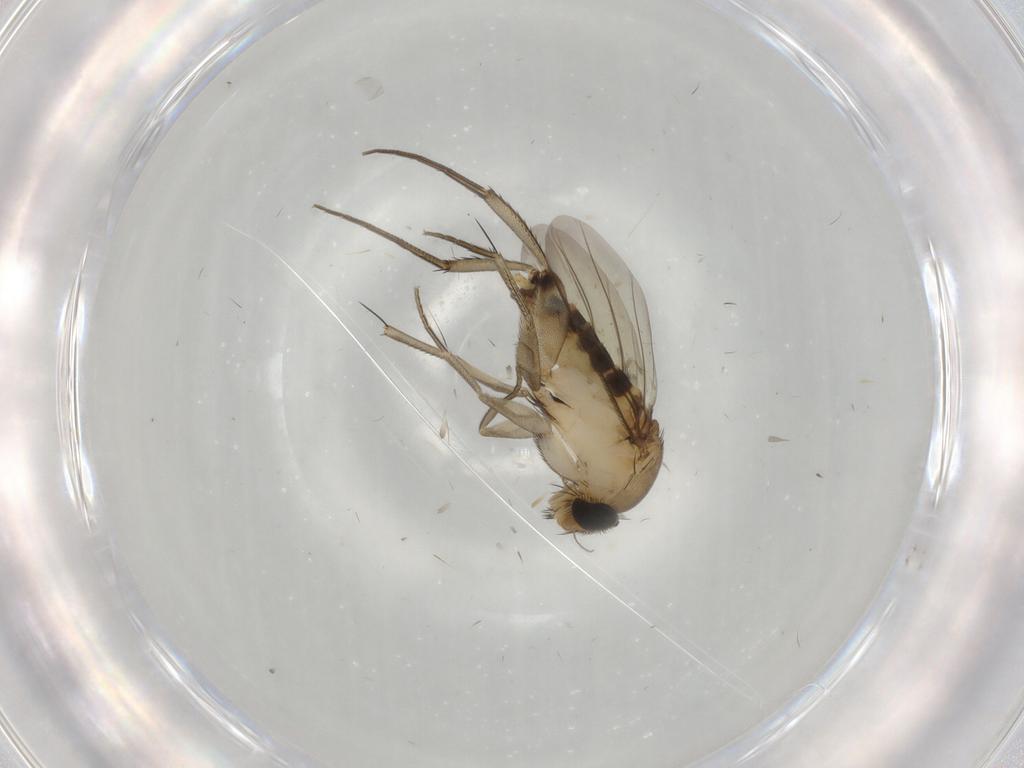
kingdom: Animalia
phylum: Arthropoda
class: Insecta
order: Diptera
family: Phoridae
